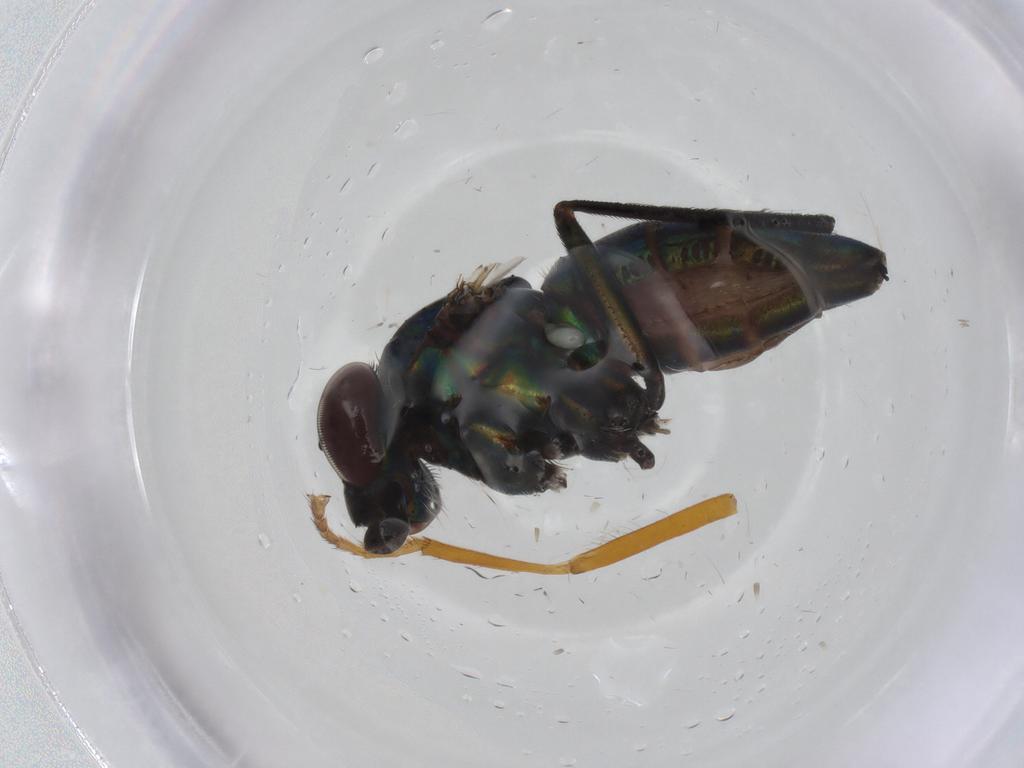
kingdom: Animalia
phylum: Arthropoda
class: Insecta
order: Diptera
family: Dolichopodidae
